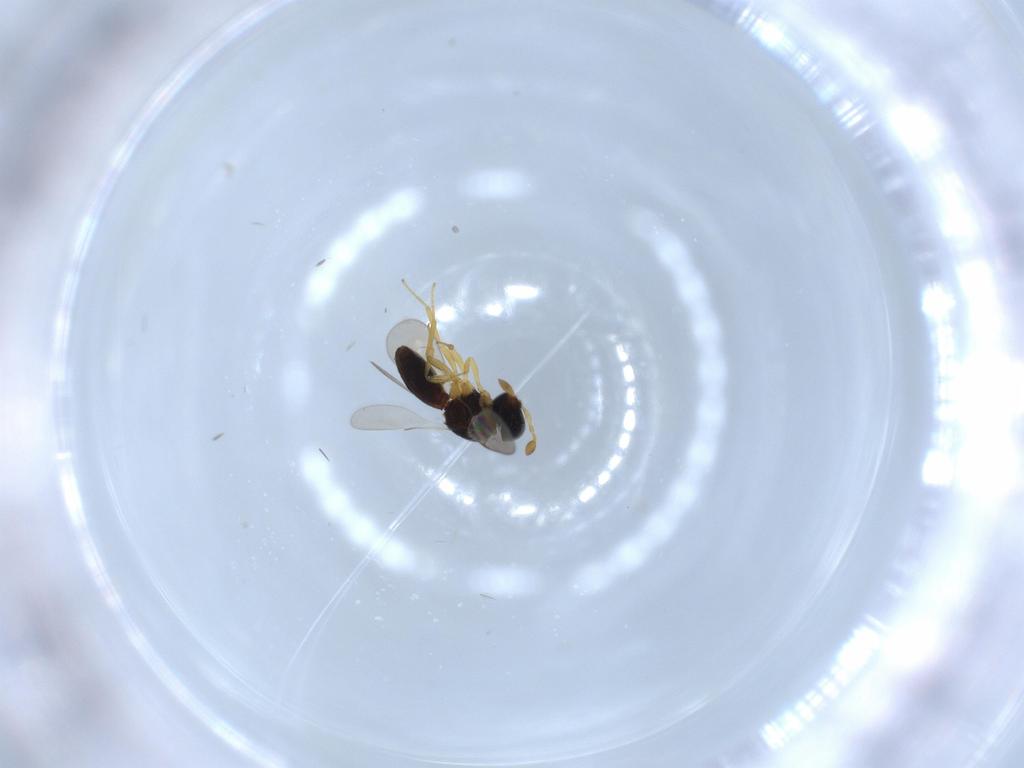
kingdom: Animalia
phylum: Arthropoda
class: Insecta
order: Hymenoptera
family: Scelionidae
